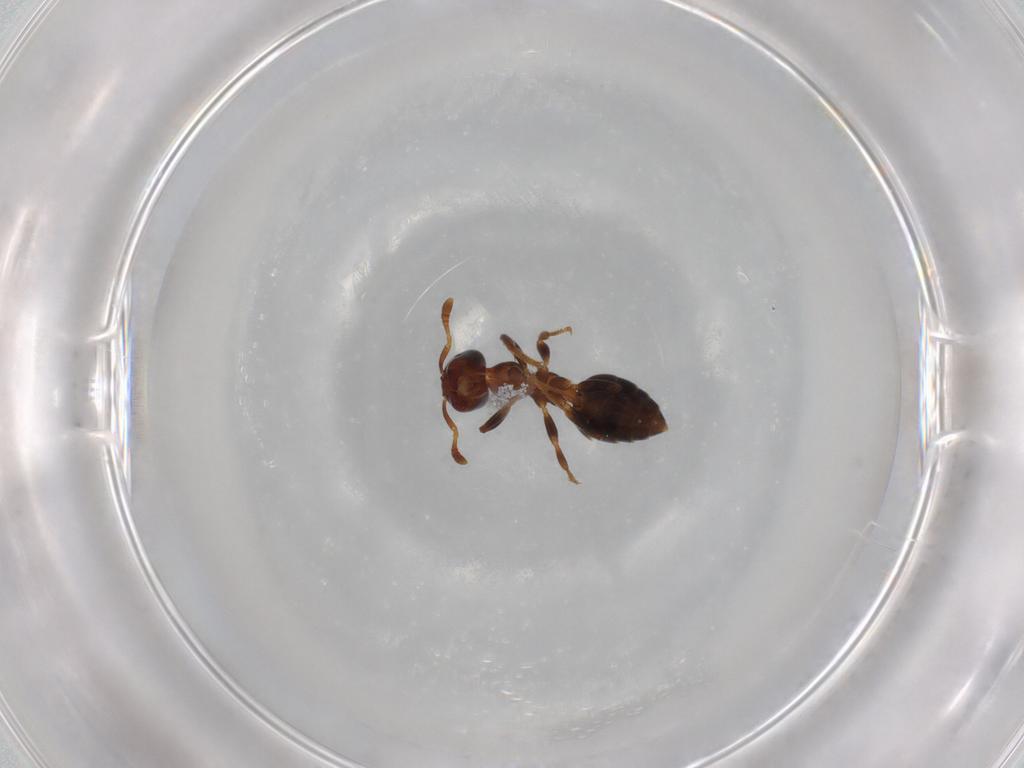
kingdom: Animalia
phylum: Arthropoda
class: Insecta
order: Hymenoptera
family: Formicidae
